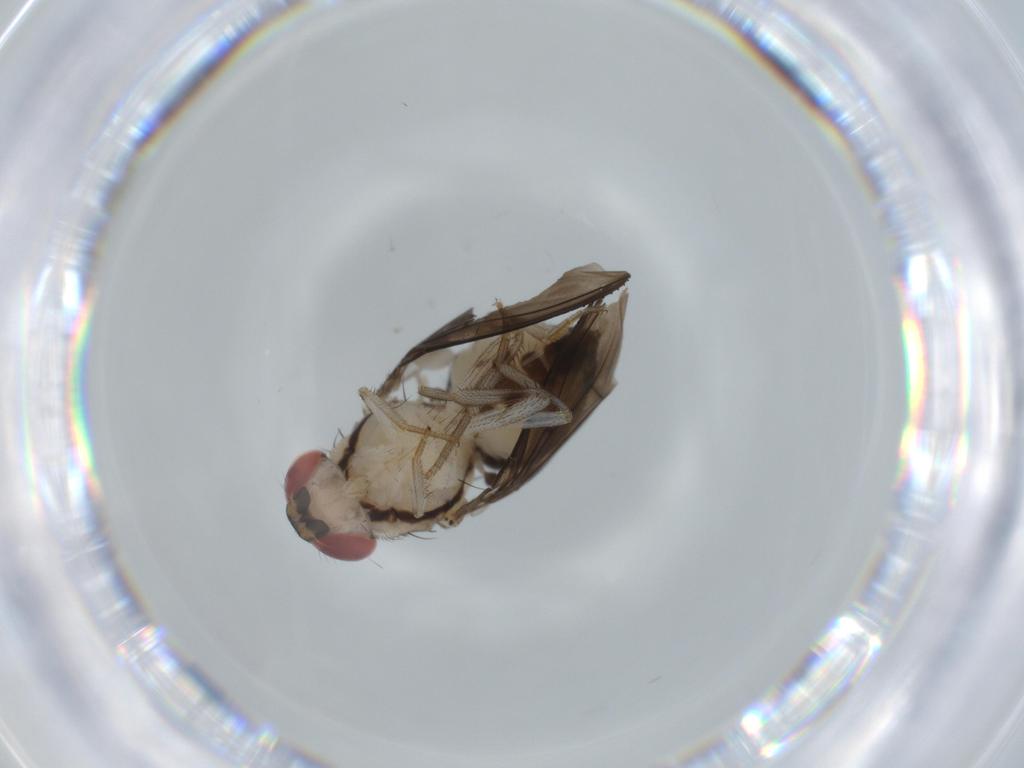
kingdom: Animalia
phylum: Arthropoda
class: Insecta
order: Diptera
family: Drosophilidae
